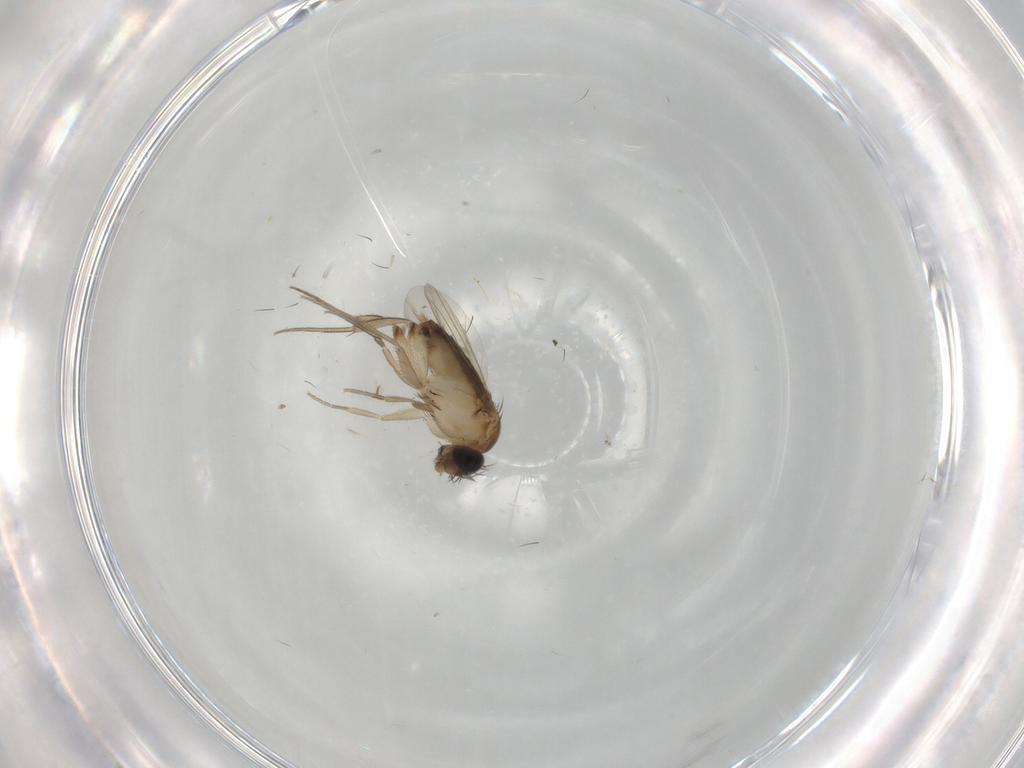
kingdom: Animalia
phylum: Arthropoda
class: Insecta
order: Diptera
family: Phoridae
